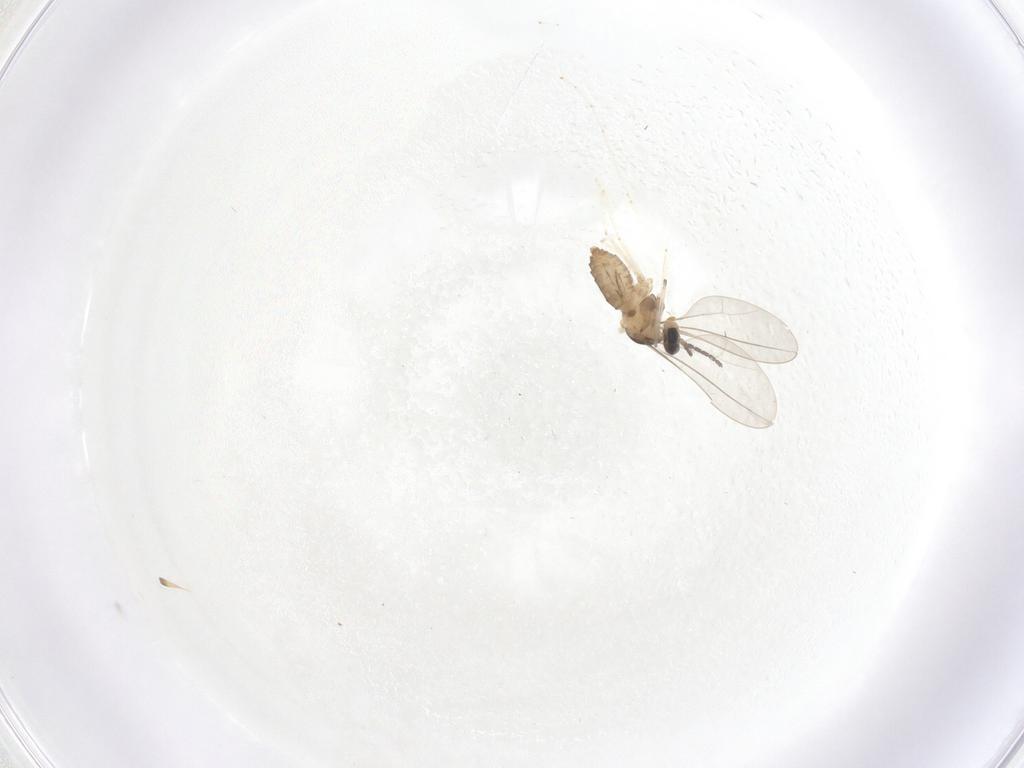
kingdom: Animalia
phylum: Arthropoda
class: Insecta
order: Diptera
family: Cecidomyiidae
